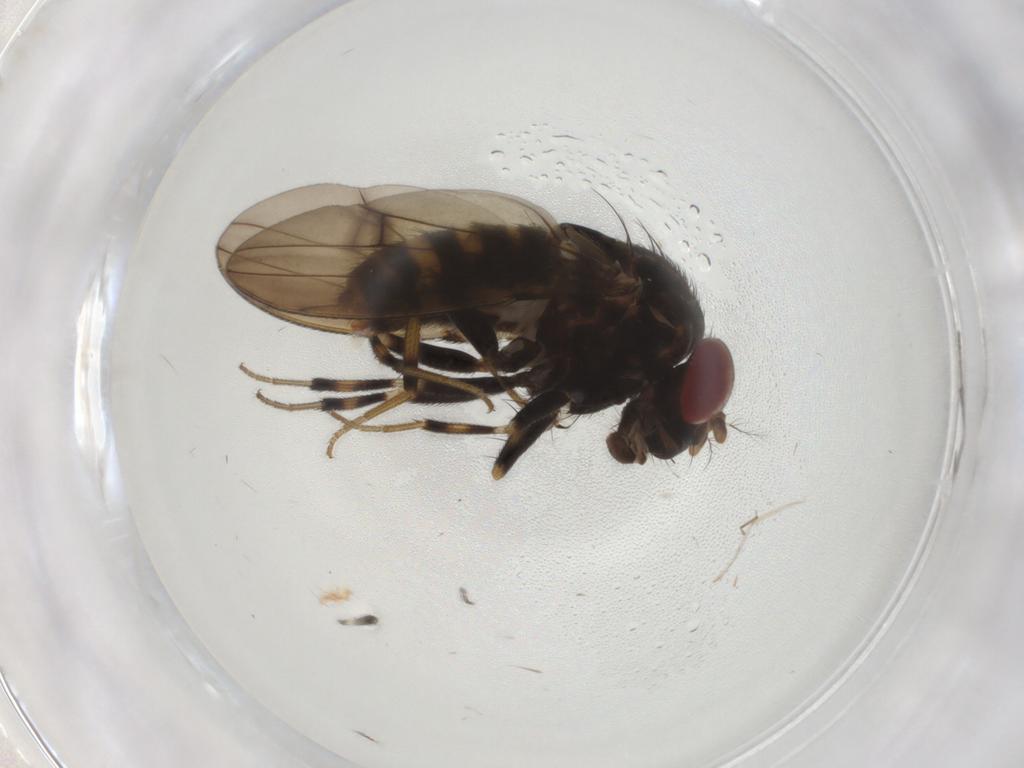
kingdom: Animalia
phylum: Arthropoda
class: Insecta
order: Diptera
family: Drosophilidae
